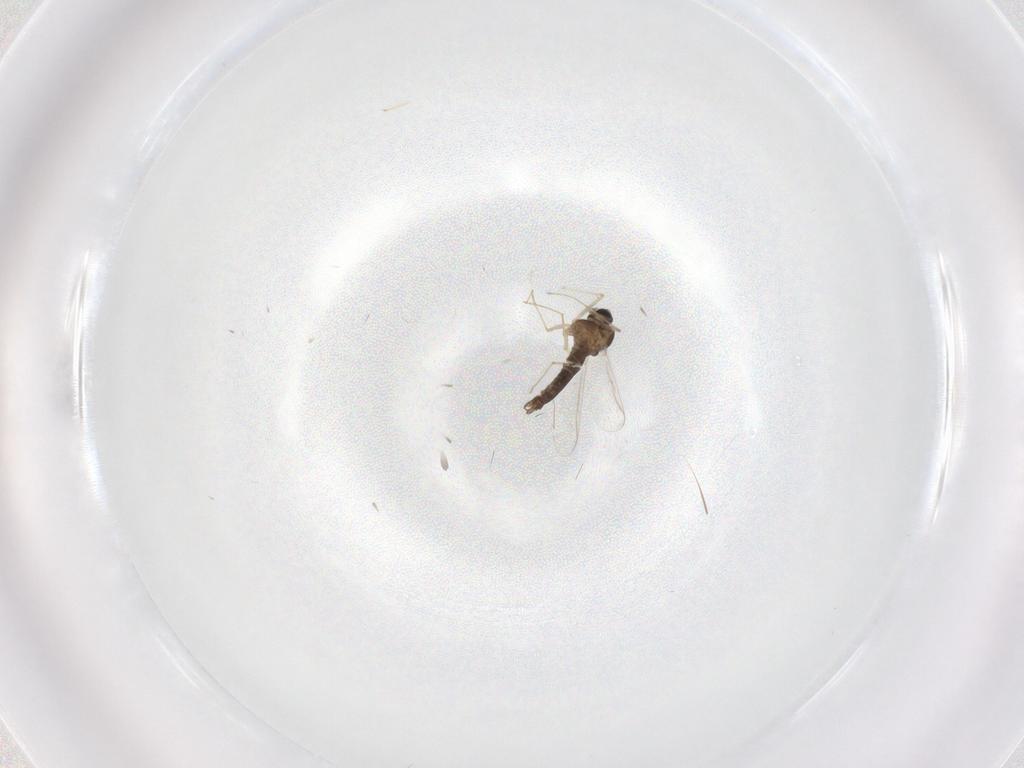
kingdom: Animalia
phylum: Arthropoda
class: Insecta
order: Diptera
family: Chironomidae
